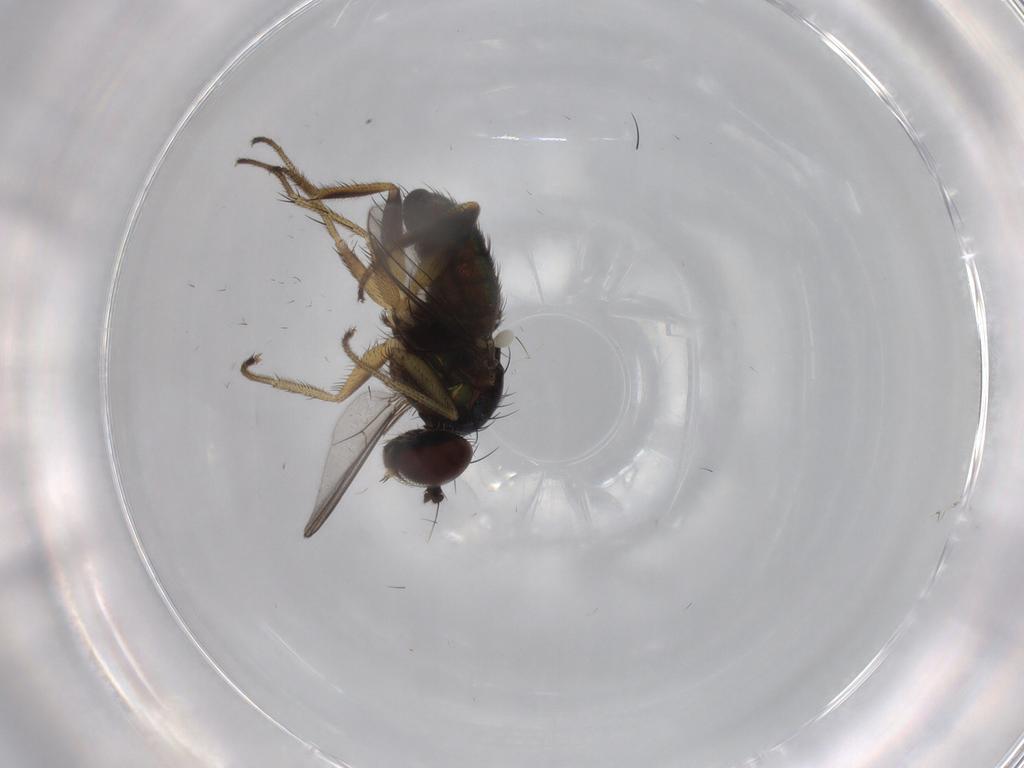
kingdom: Animalia
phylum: Arthropoda
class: Insecta
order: Diptera
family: Dolichopodidae
